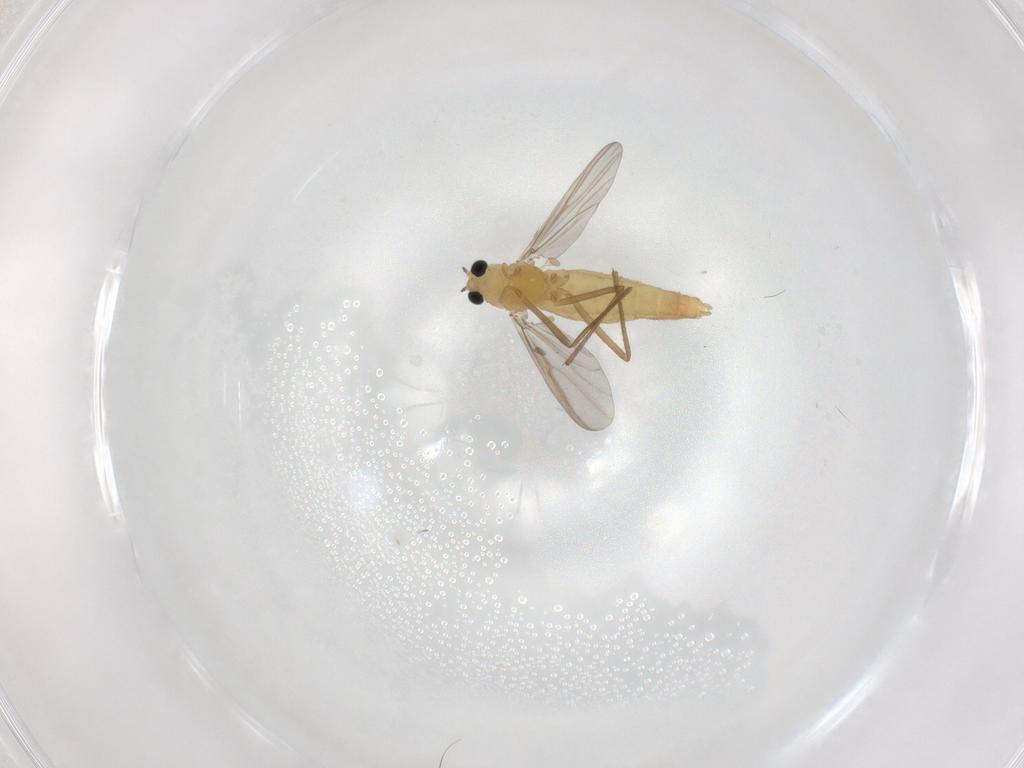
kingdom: Animalia
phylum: Arthropoda
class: Insecta
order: Diptera
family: Chironomidae
